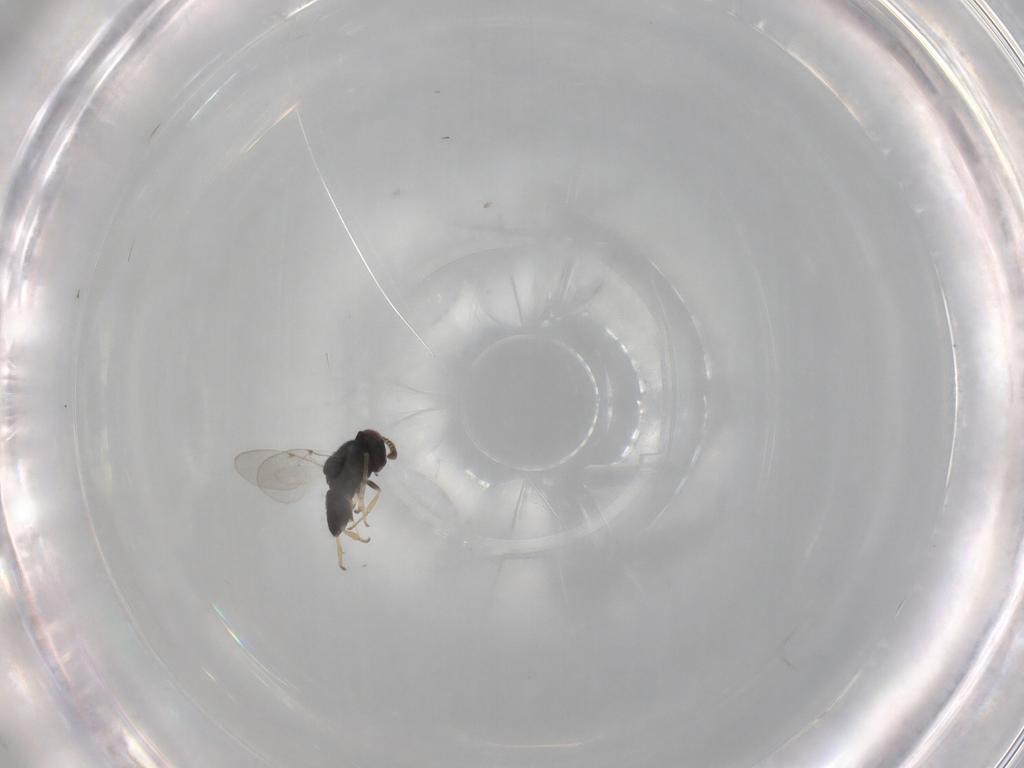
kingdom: Animalia
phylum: Arthropoda
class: Insecta
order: Hymenoptera
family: Encyrtidae
